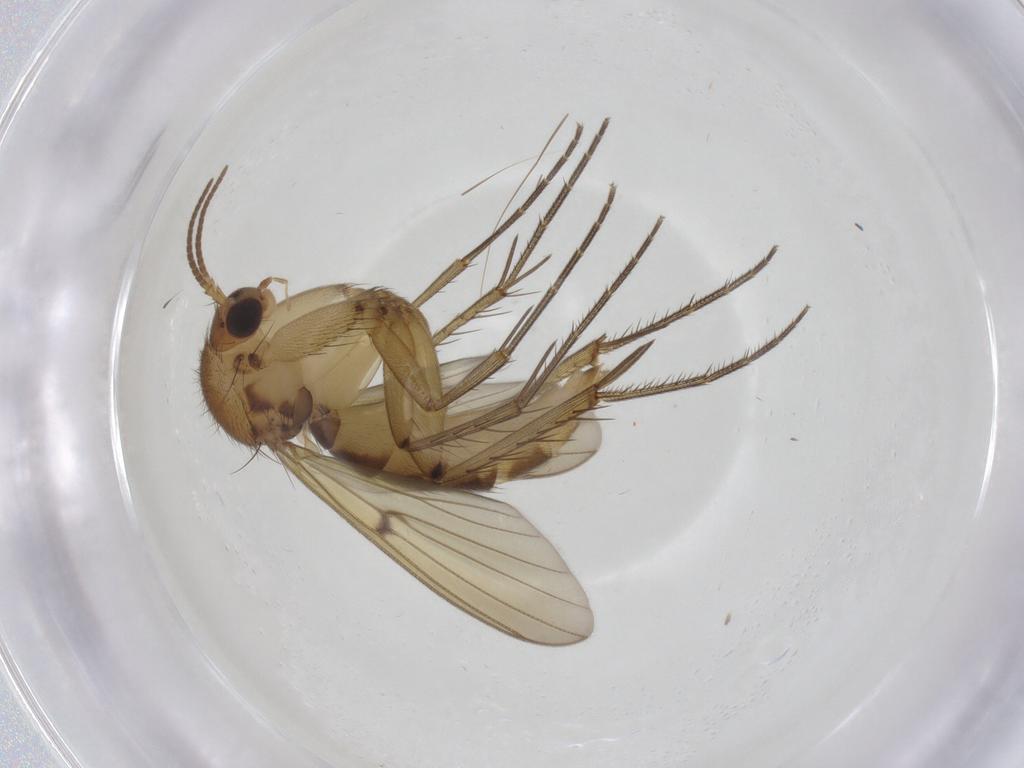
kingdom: Animalia
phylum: Arthropoda
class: Insecta
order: Diptera
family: Mycetophilidae
